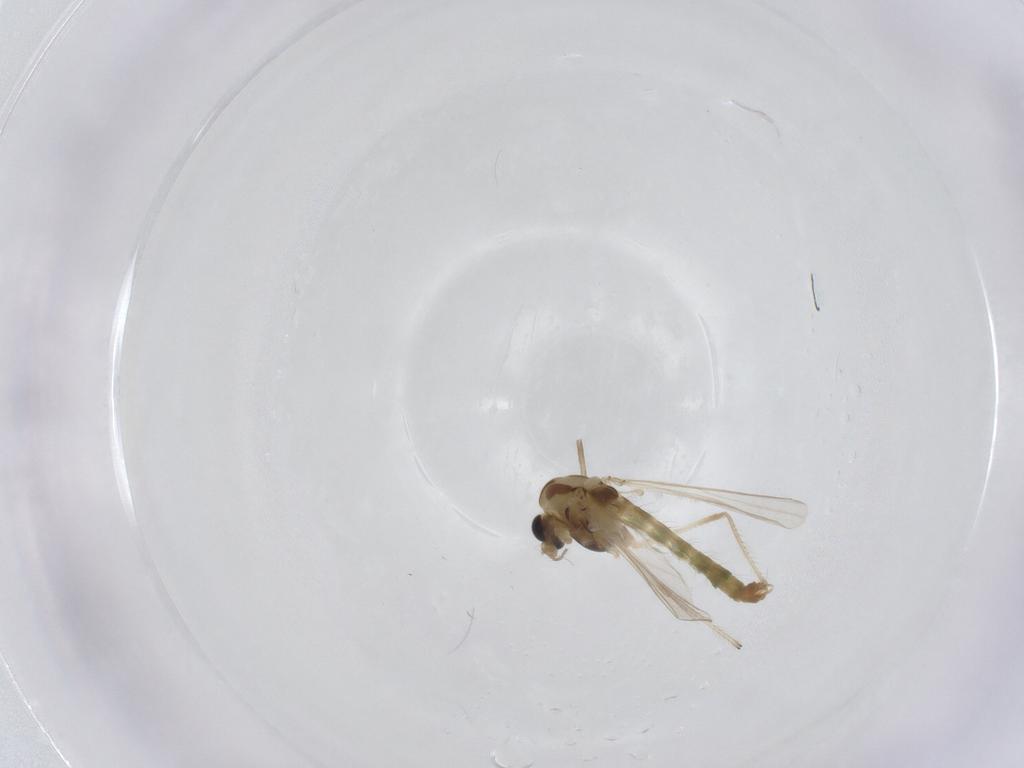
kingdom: Animalia
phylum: Arthropoda
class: Insecta
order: Diptera
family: Chironomidae
